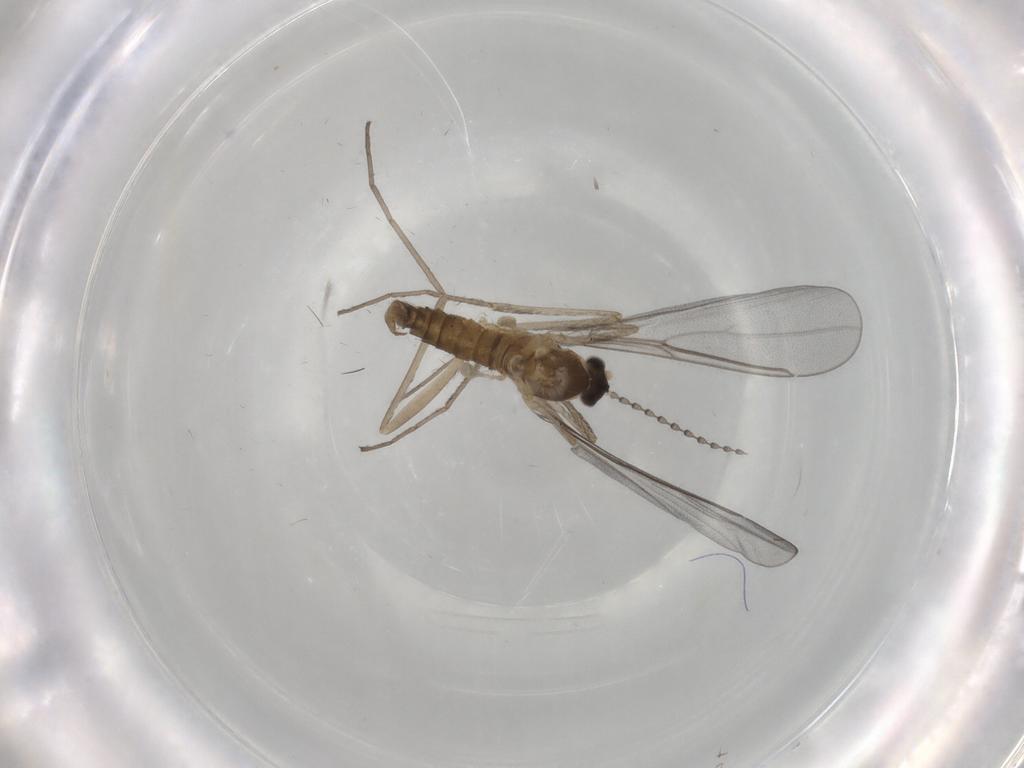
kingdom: Animalia
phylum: Arthropoda
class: Insecta
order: Diptera
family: Cecidomyiidae
